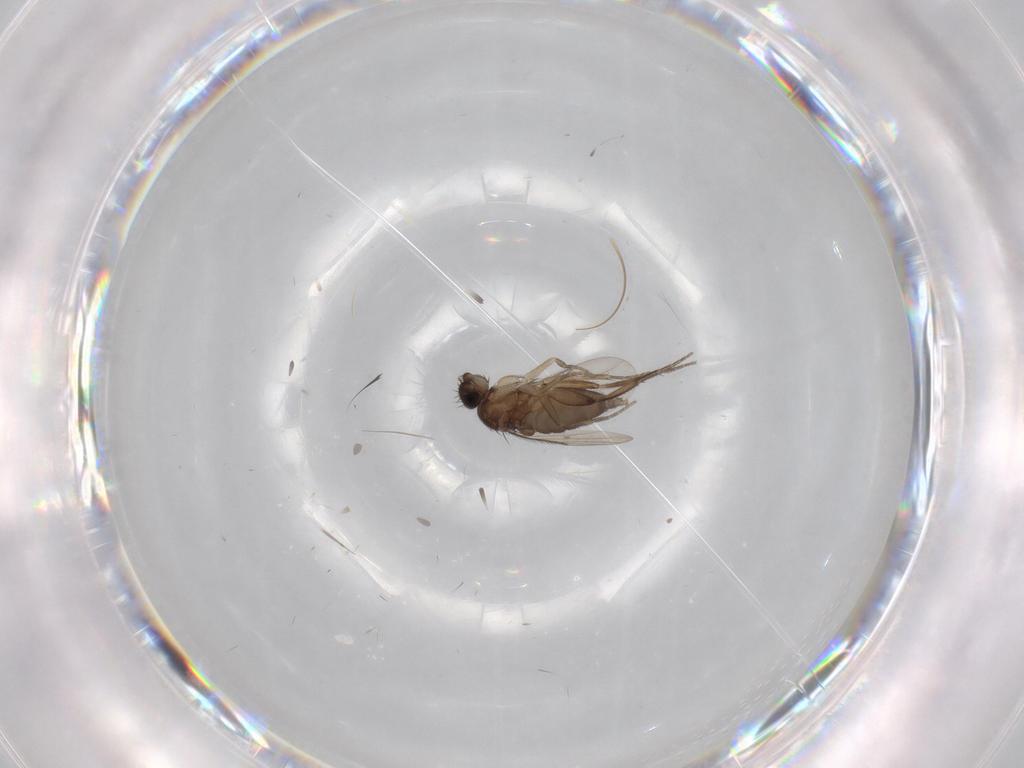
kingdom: Animalia
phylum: Arthropoda
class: Insecta
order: Diptera
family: Phoridae
